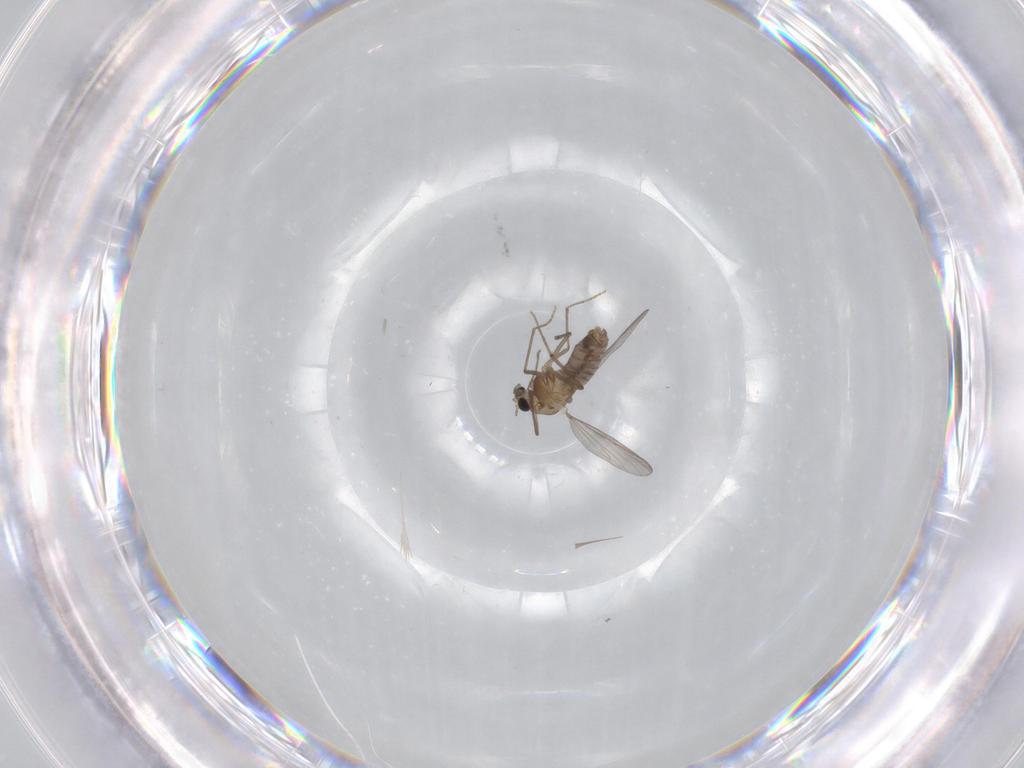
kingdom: Animalia
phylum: Arthropoda
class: Insecta
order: Diptera
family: Chironomidae
